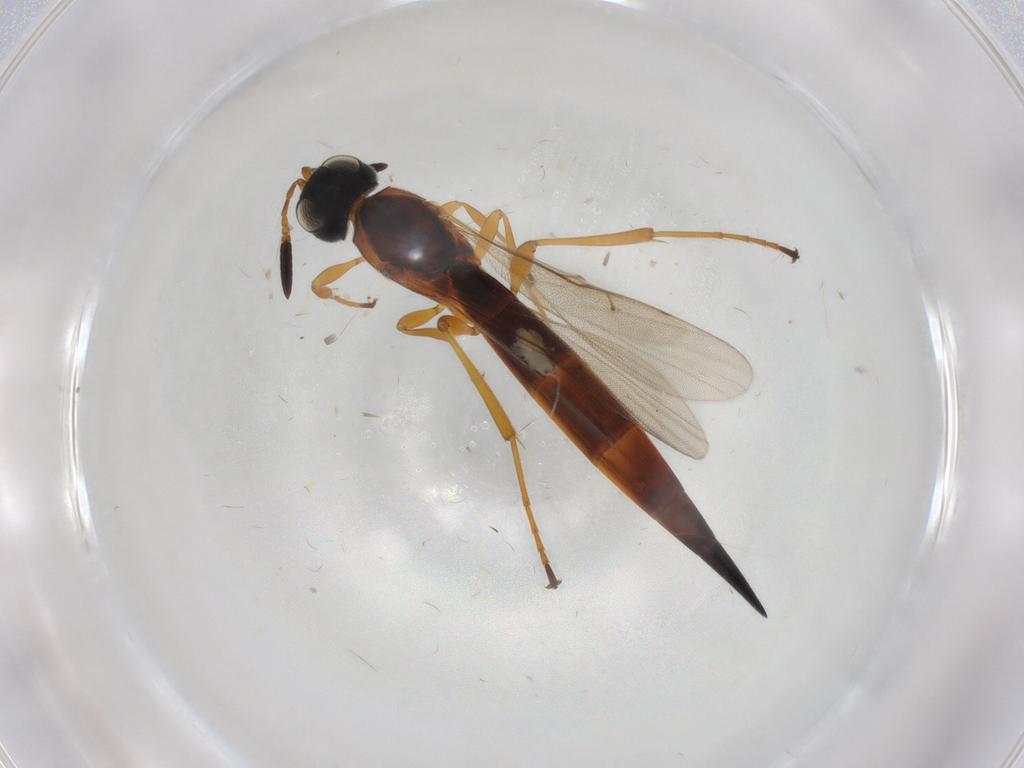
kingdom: Animalia
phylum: Arthropoda
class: Insecta
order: Hymenoptera
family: Scelionidae
